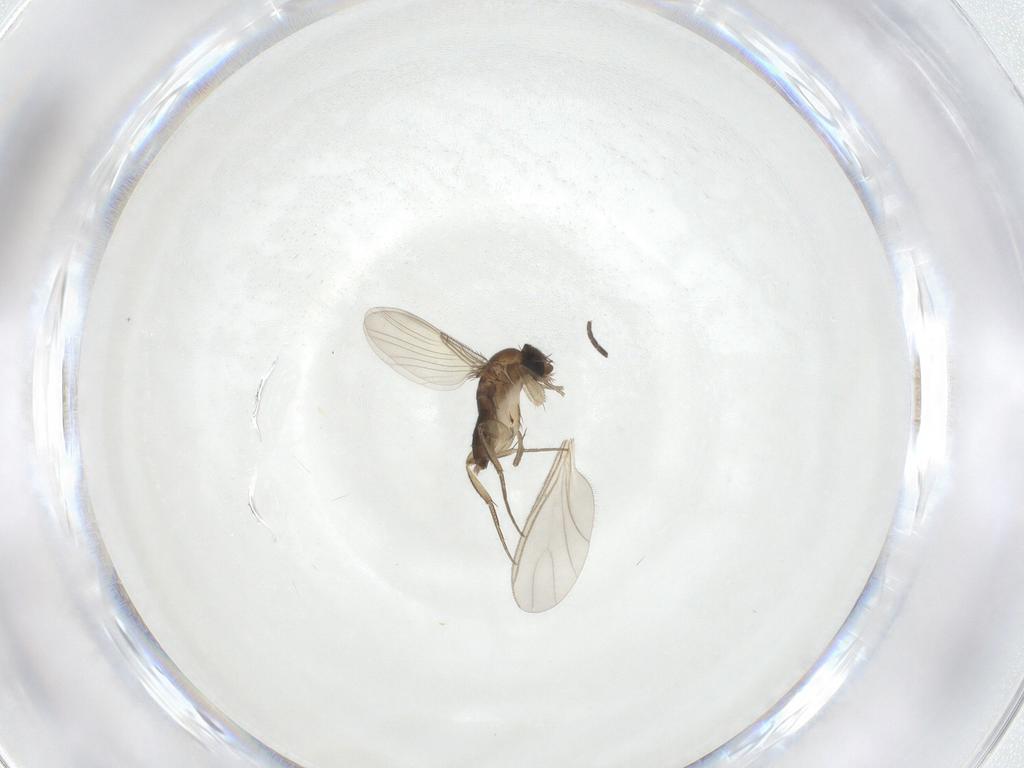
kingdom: Animalia
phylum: Arthropoda
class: Insecta
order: Diptera
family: Sciaridae
